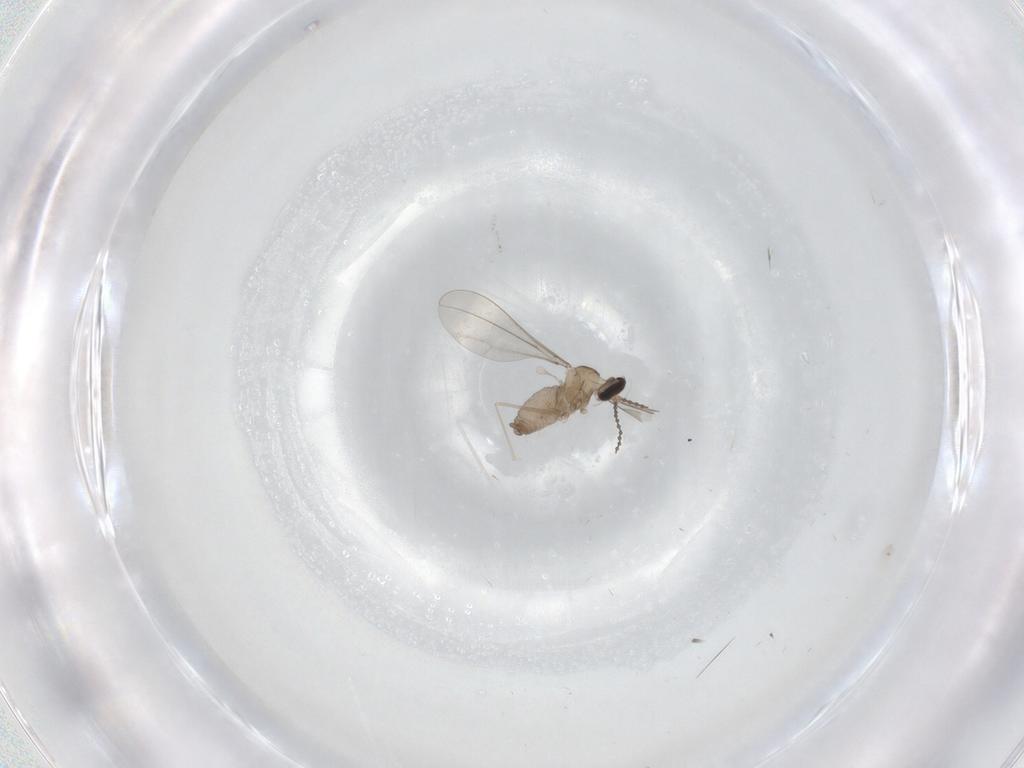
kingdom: Animalia
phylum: Arthropoda
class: Insecta
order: Diptera
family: Cecidomyiidae
